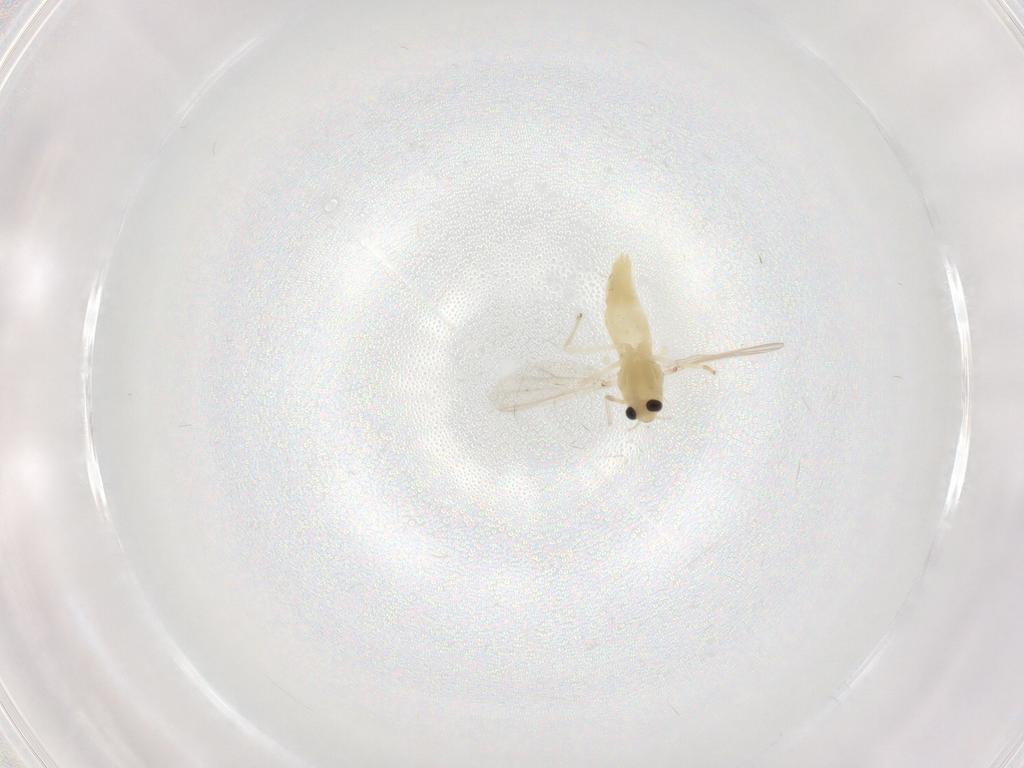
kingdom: Animalia
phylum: Arthropoda
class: Insecta
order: Diptera
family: Chironomidae
